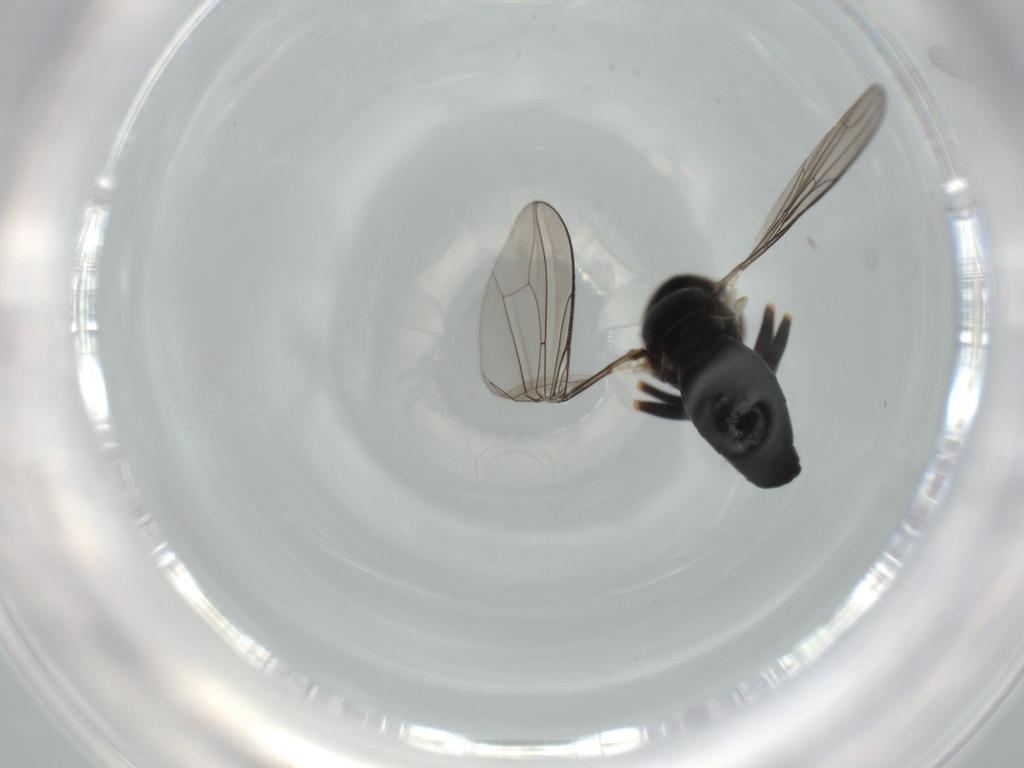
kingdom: Animalia
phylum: Arthropoda
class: Insecta
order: Diptera
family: Pipunculidae
